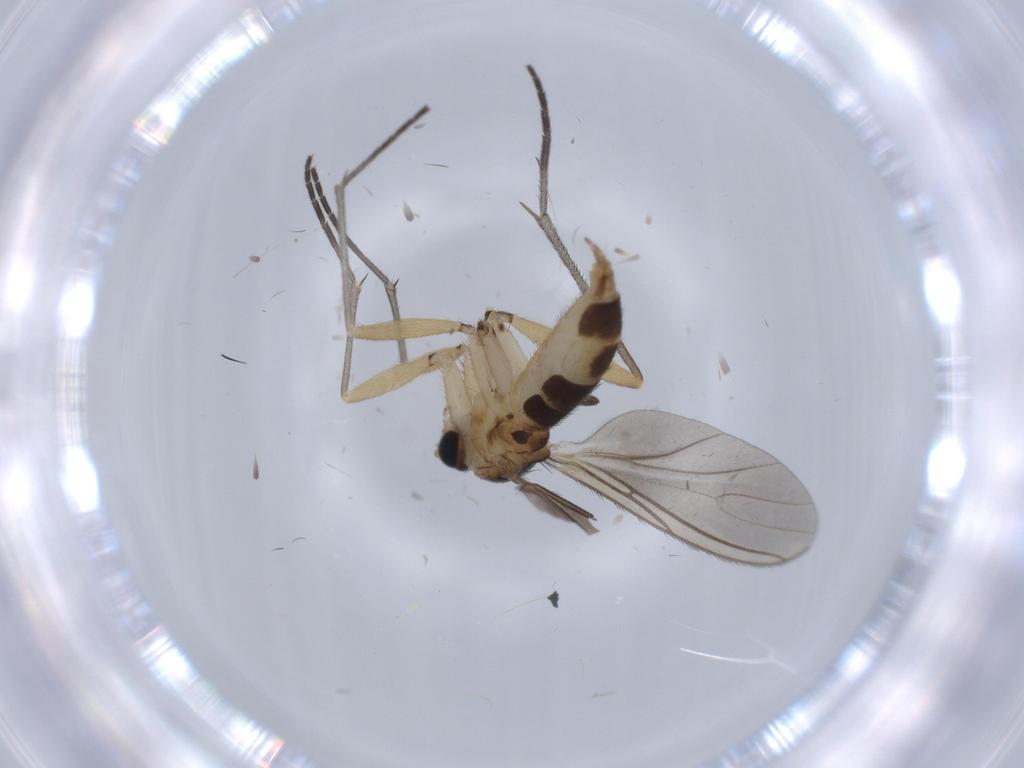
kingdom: Animalia
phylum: Arthropoda
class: Insecta
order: Diptera
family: Sciaridae
